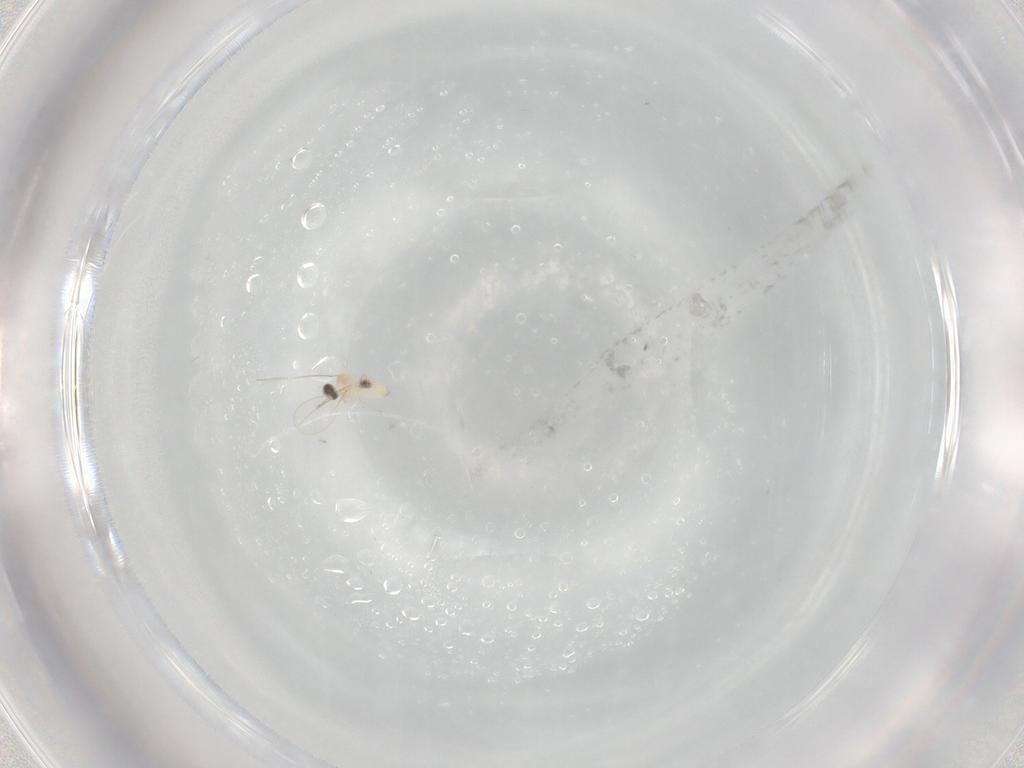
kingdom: Animalia
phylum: Arthropoda
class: Insecta
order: Diptera
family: Cecidomyiidae
